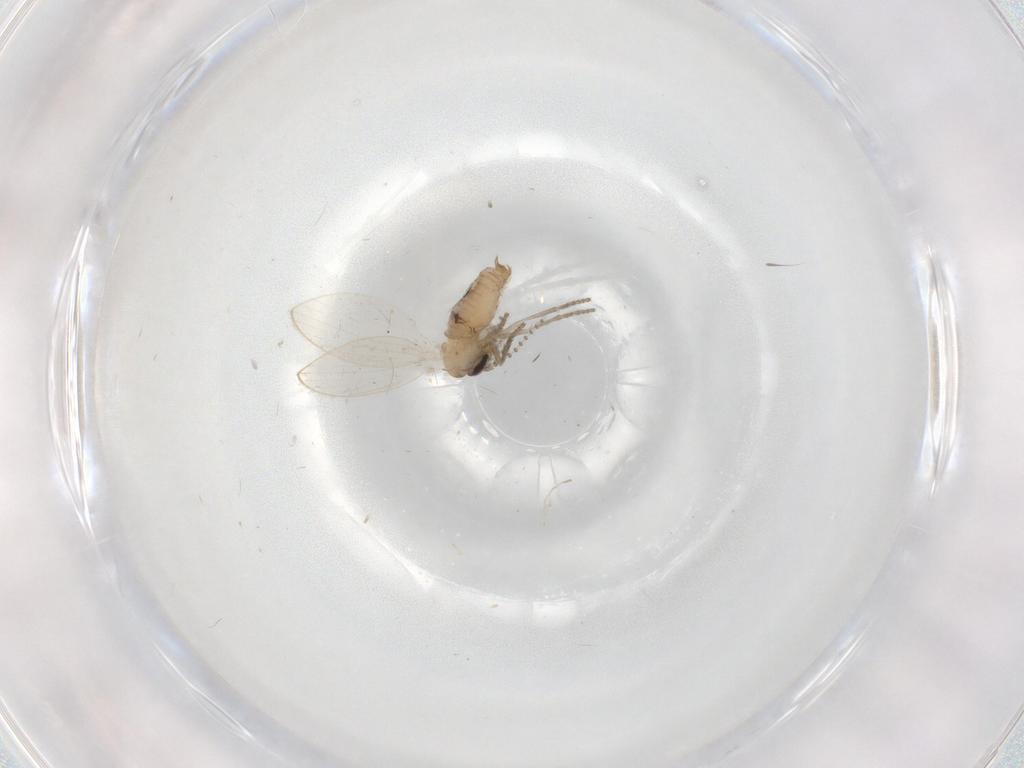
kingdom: Animalia
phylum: Arthropoda
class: Insecta
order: Diptera
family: Psychodidae
